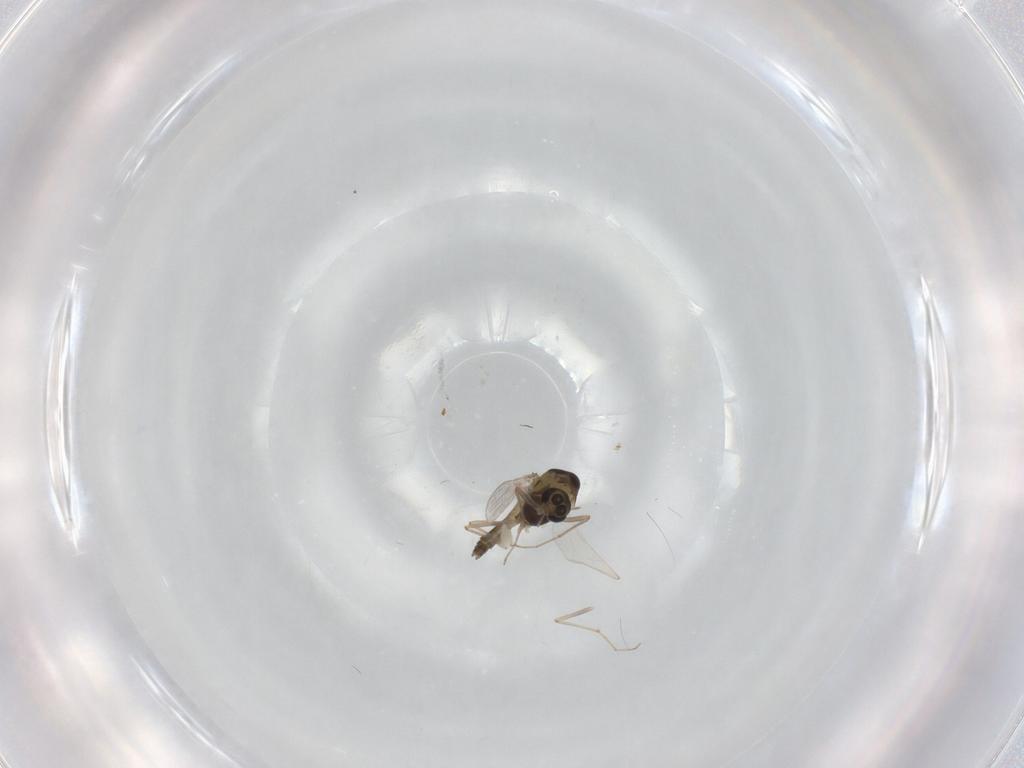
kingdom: Animalia
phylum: Arthropoda
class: Insecta
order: Diptera
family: Chironomidae
